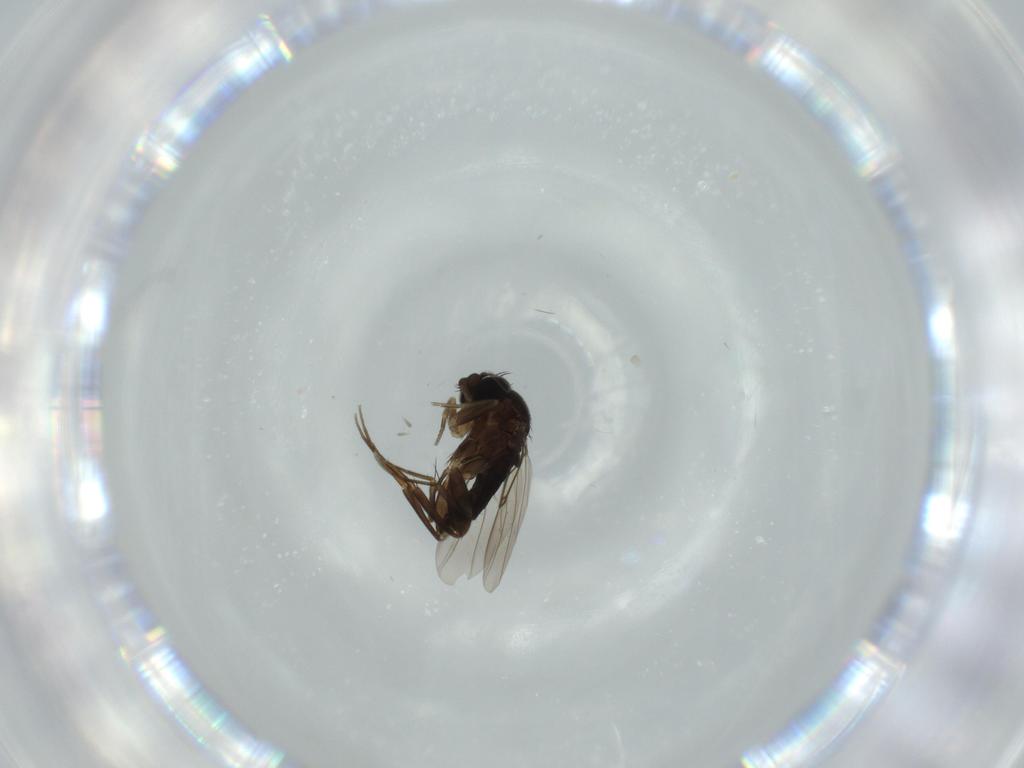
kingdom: Animalia
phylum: Arthropoda
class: Insecta
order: Diptera
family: Phoridae
